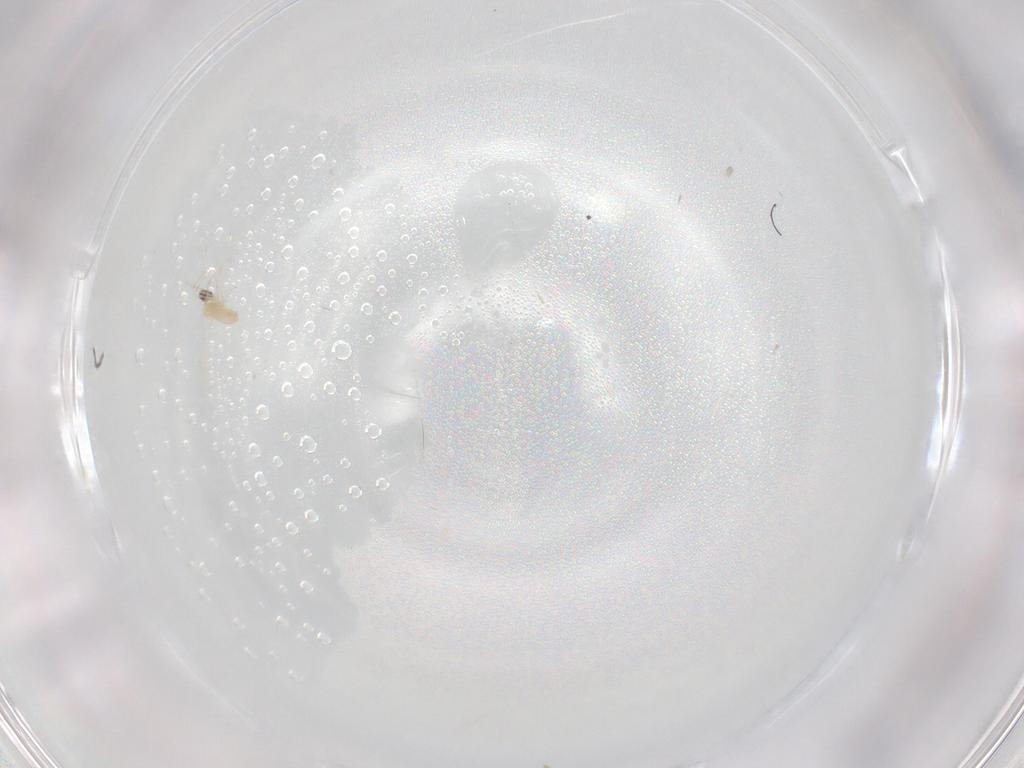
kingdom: Animalia
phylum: Arthropoda
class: Insecta
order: Diptera
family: Cecidomyiidae
